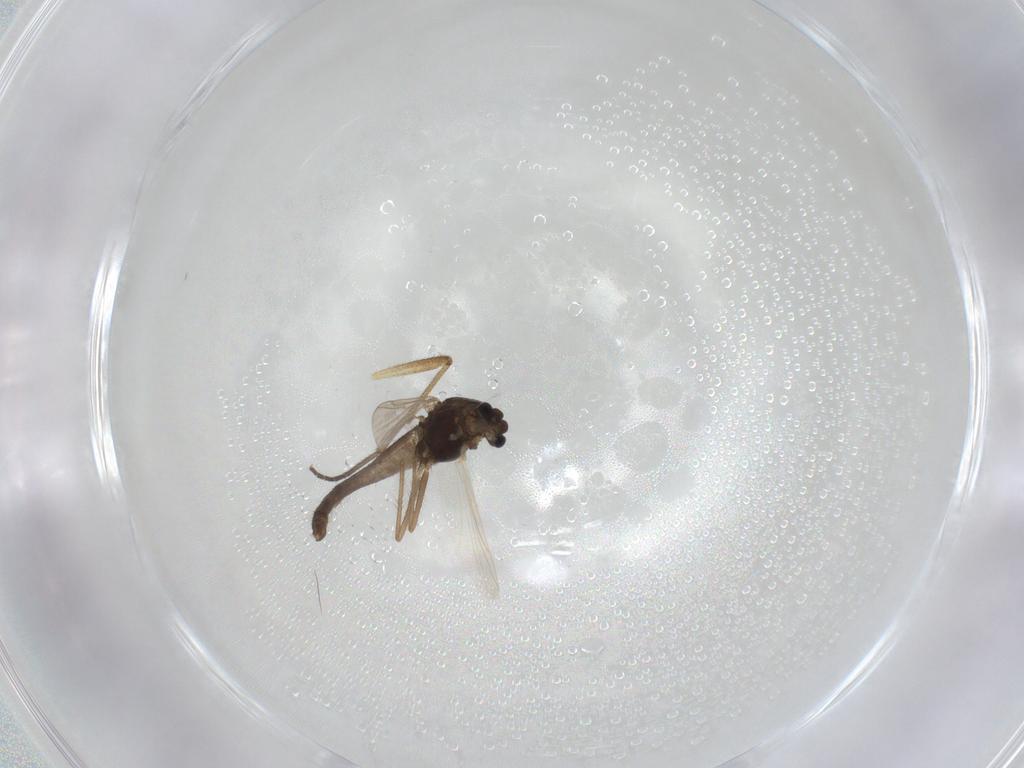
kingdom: Animalia
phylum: Arthropoda
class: Insecta
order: Diptera
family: Chironomidae
